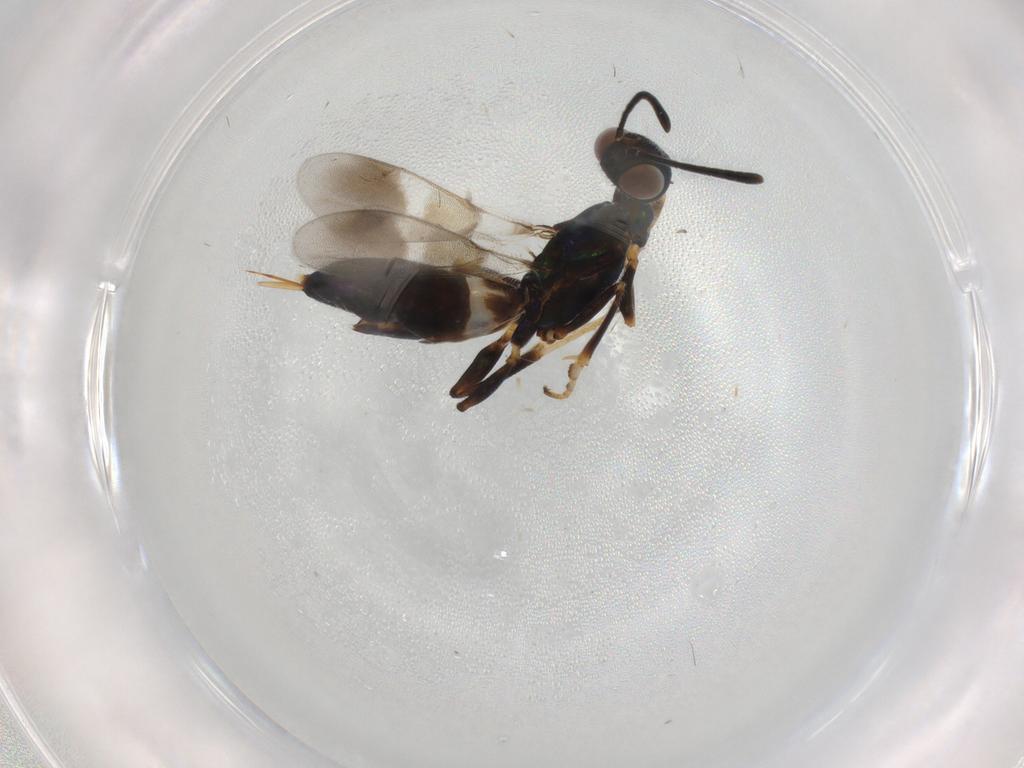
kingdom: Animalia
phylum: Arthropoda
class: Insecta
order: Hymenoptera
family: Eupelmidae
